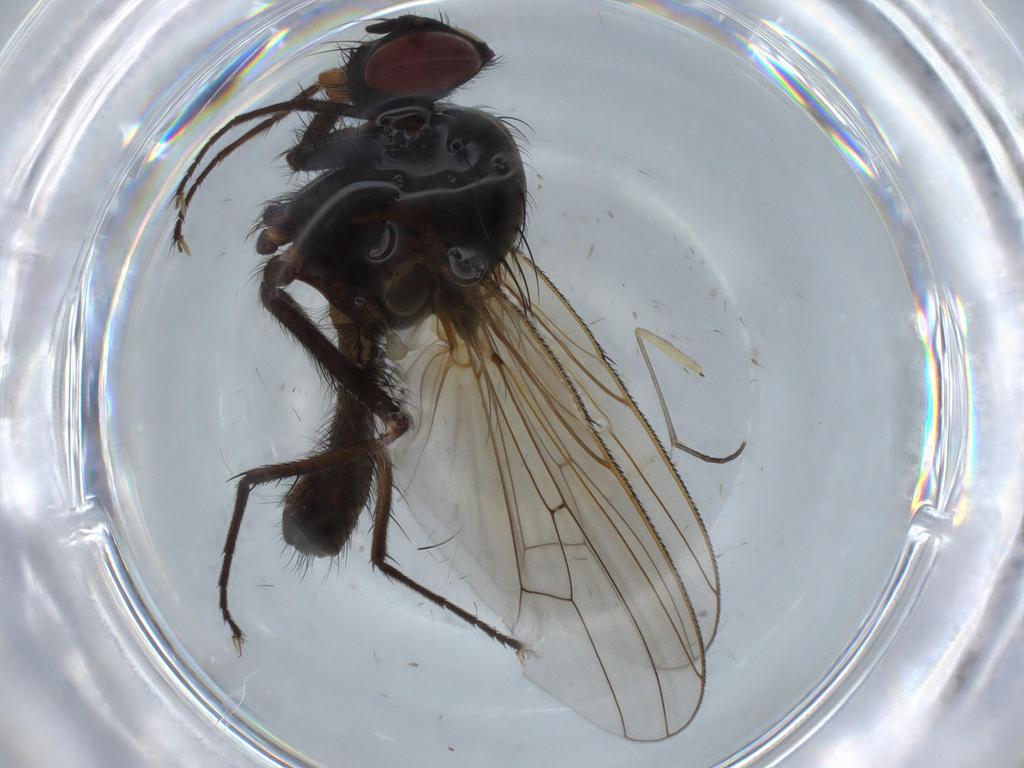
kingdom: Animalia
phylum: Arthropoda
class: Insecta
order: Diptera
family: Anthomyiidae
